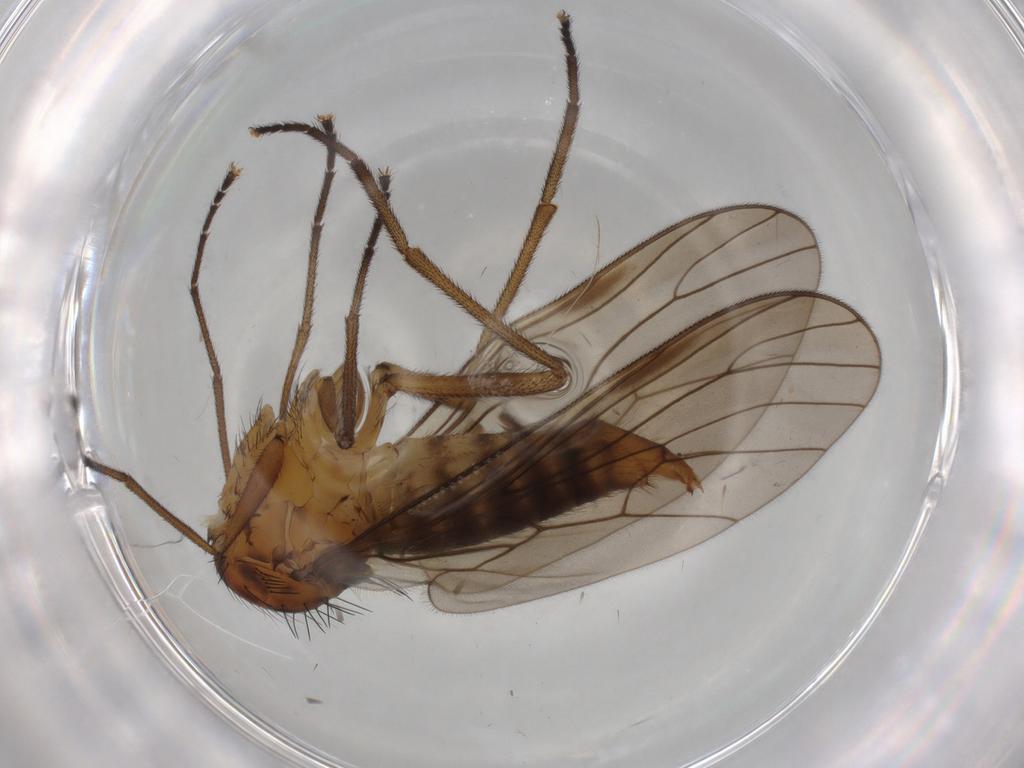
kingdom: Animalia
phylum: Arthropoda
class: Insecta
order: Diptera
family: Brachystomatidae
